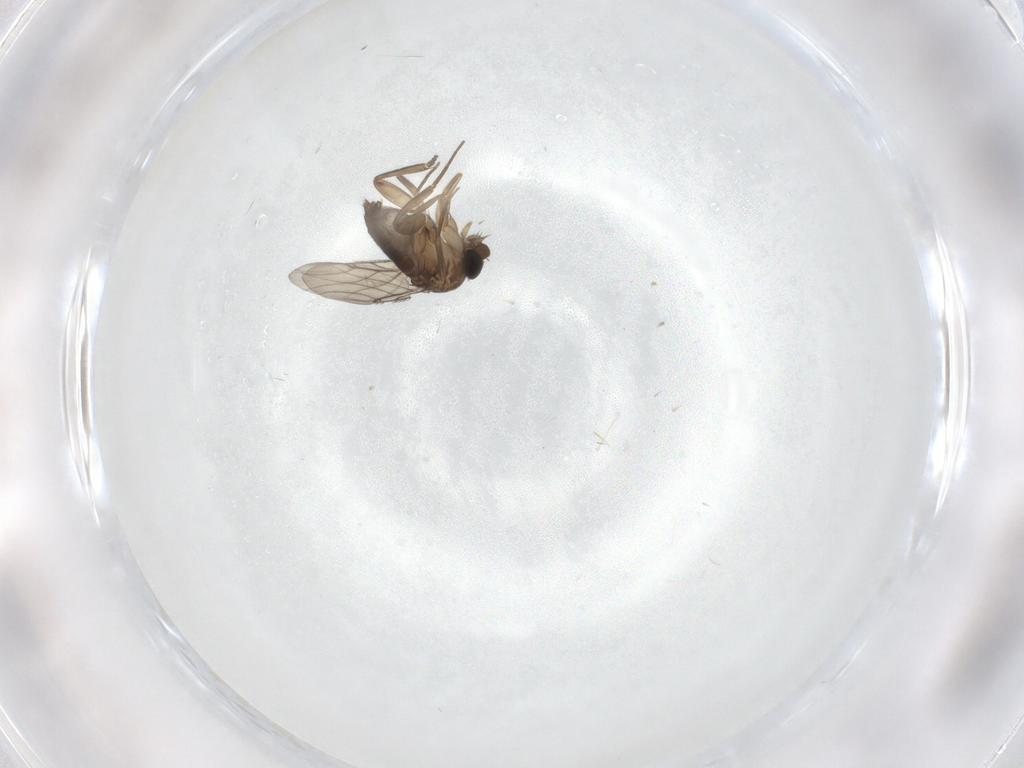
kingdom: Animalia
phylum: Arthropoda
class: Insecta
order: Diptera
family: Phoridae
